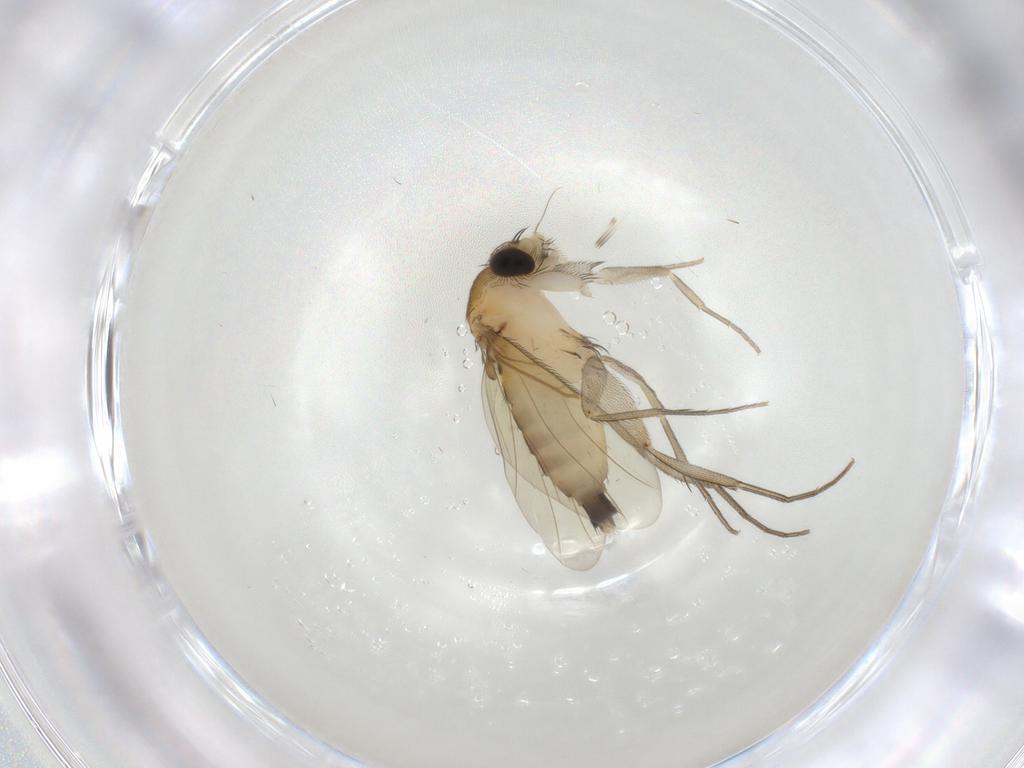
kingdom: Animalia
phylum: Arthropoda
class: Insecta
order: Diptera
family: Phoridae
